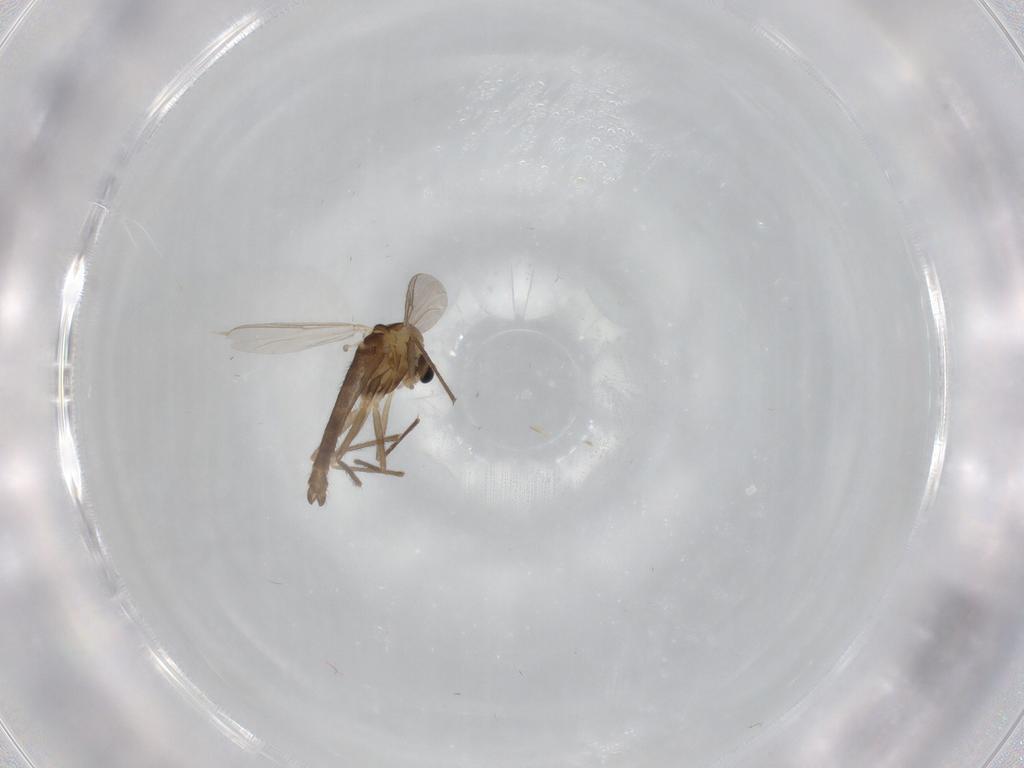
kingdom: Animalia
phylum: Arthropoda
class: Insecta
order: Diptera
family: Chironomidae
